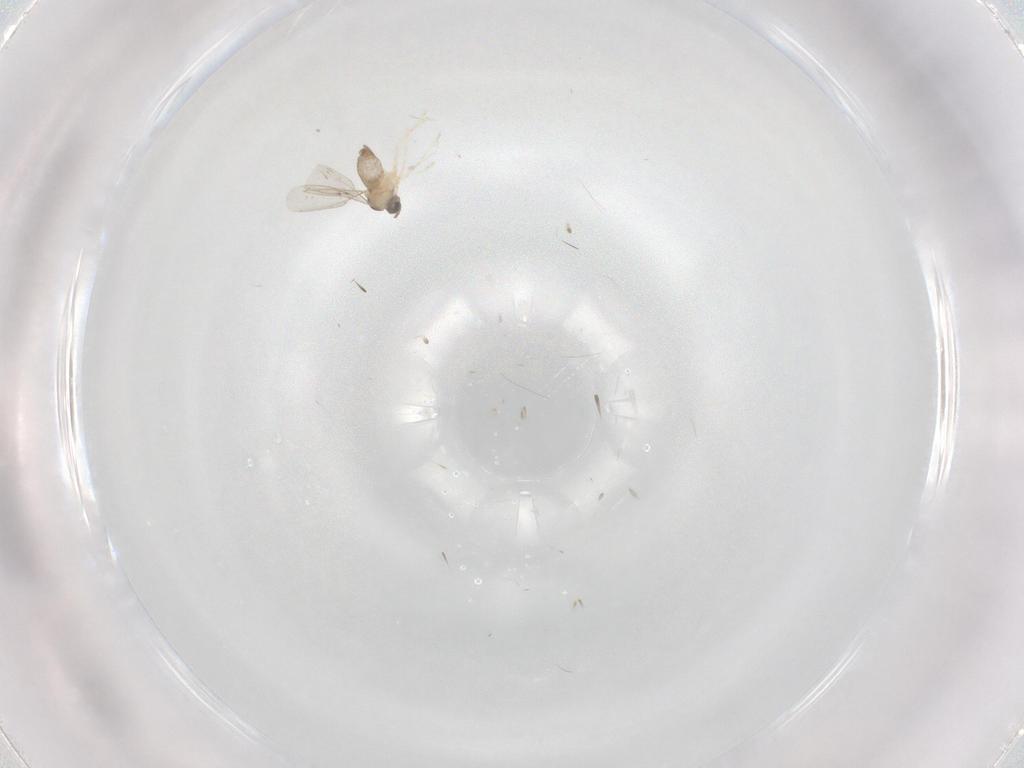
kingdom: Animalia
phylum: Arthropoda
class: Insecta
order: Diptera
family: Cecidomyiidae
